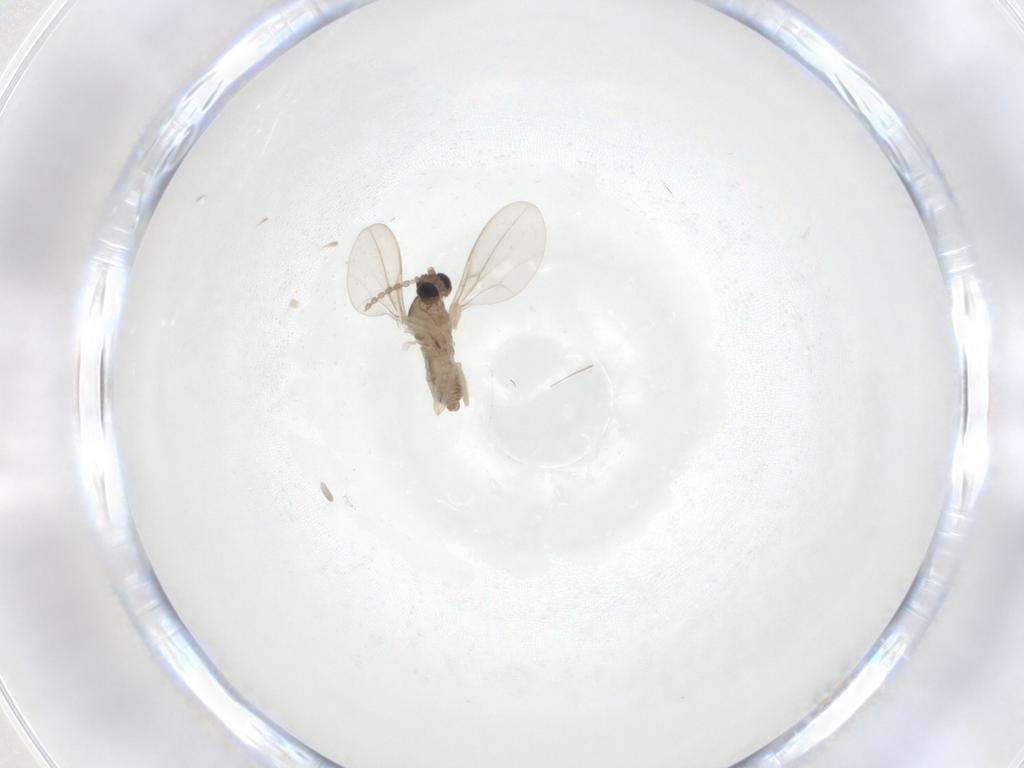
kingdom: Animalia
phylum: Arthropoda
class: Insecta
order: Diptera
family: Cecidomyiidae
